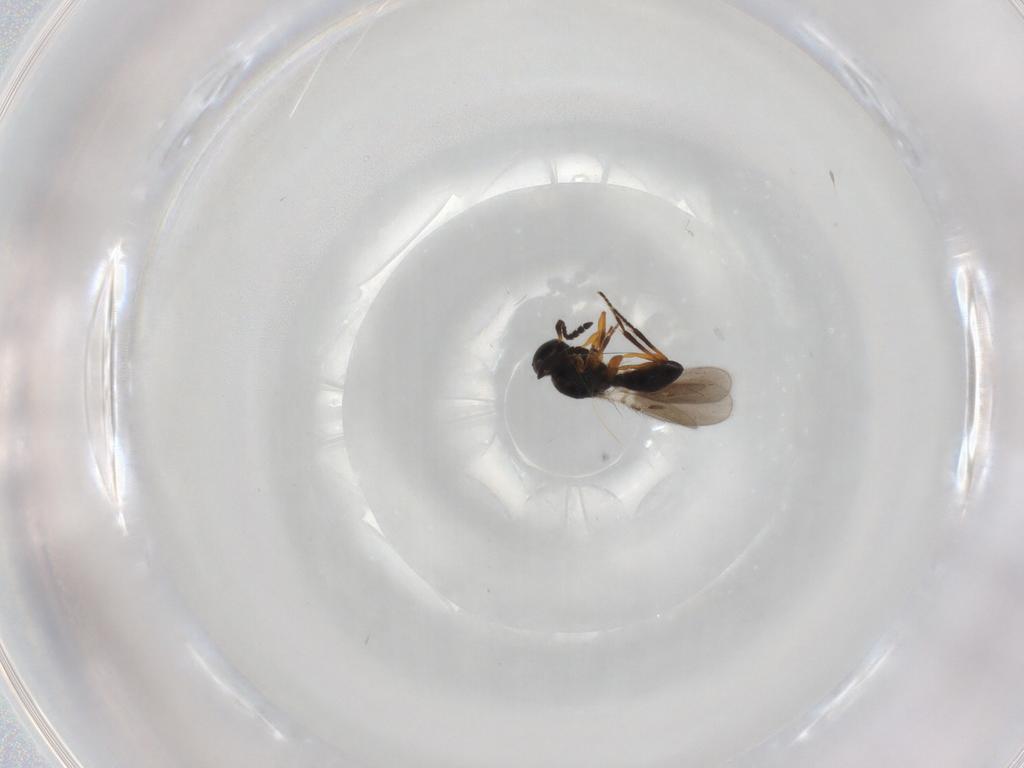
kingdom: Animalia
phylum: Arthropoda
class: Insecta
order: Hymenoptera
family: Platygastridae
